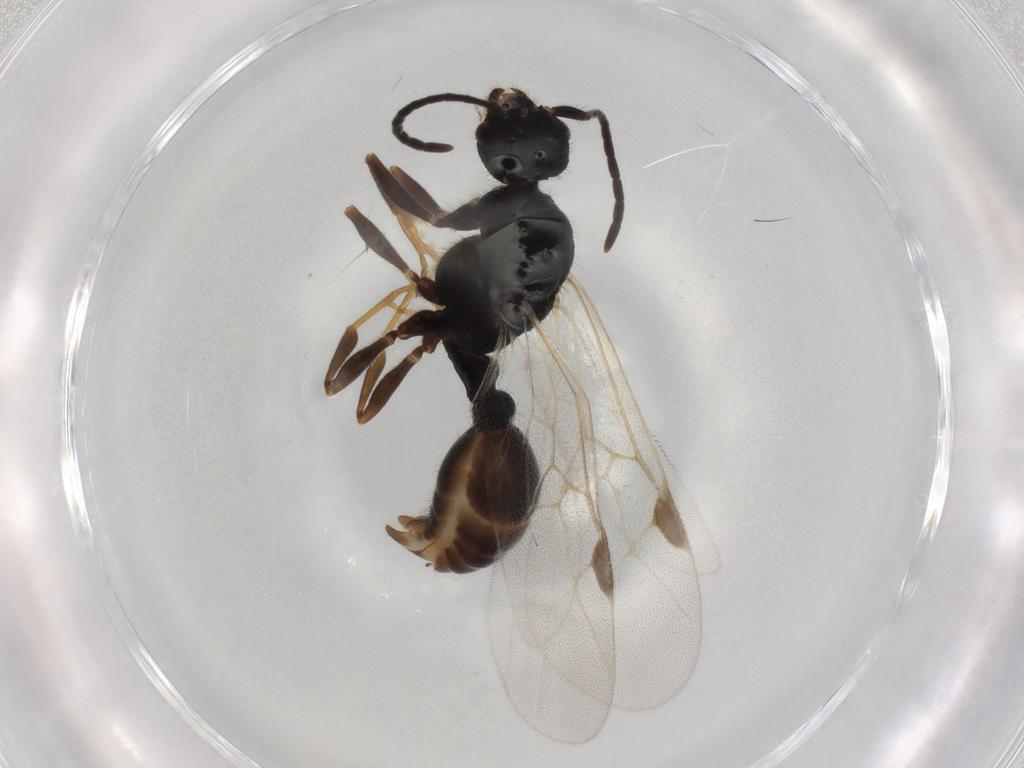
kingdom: Animalia
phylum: Arthropoda
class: Insecta
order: Hymenoptera
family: Formicidae
